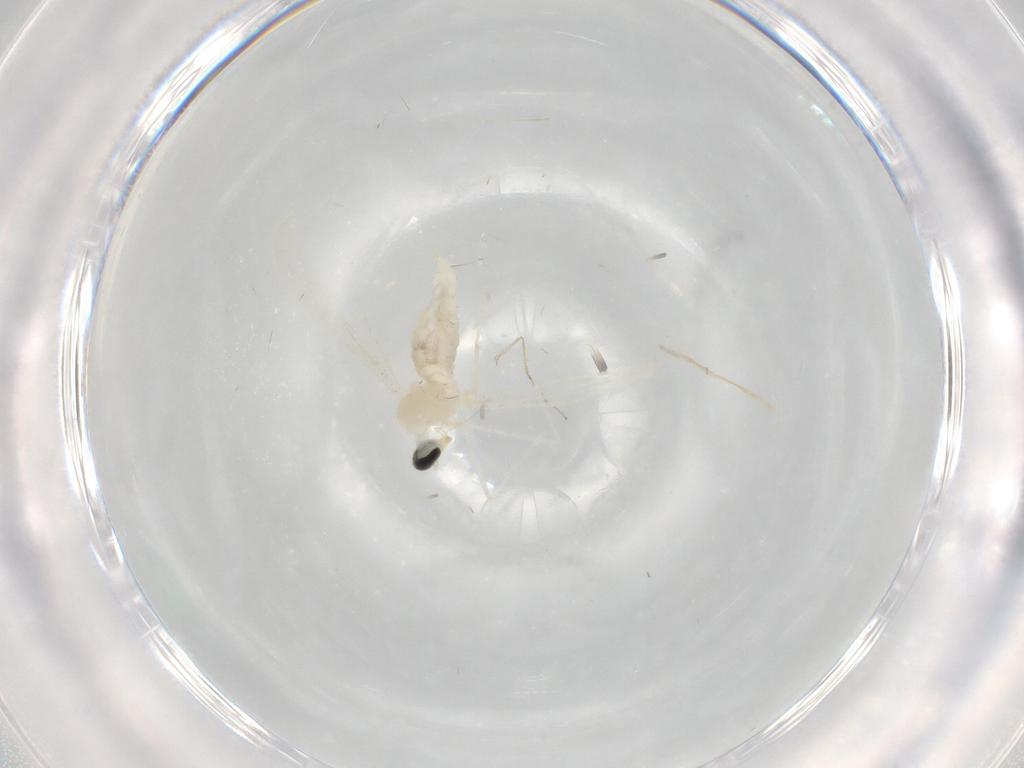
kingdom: Animalia
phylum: Arthropoda
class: Insecta
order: Diptera
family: Cecidomyiidae
